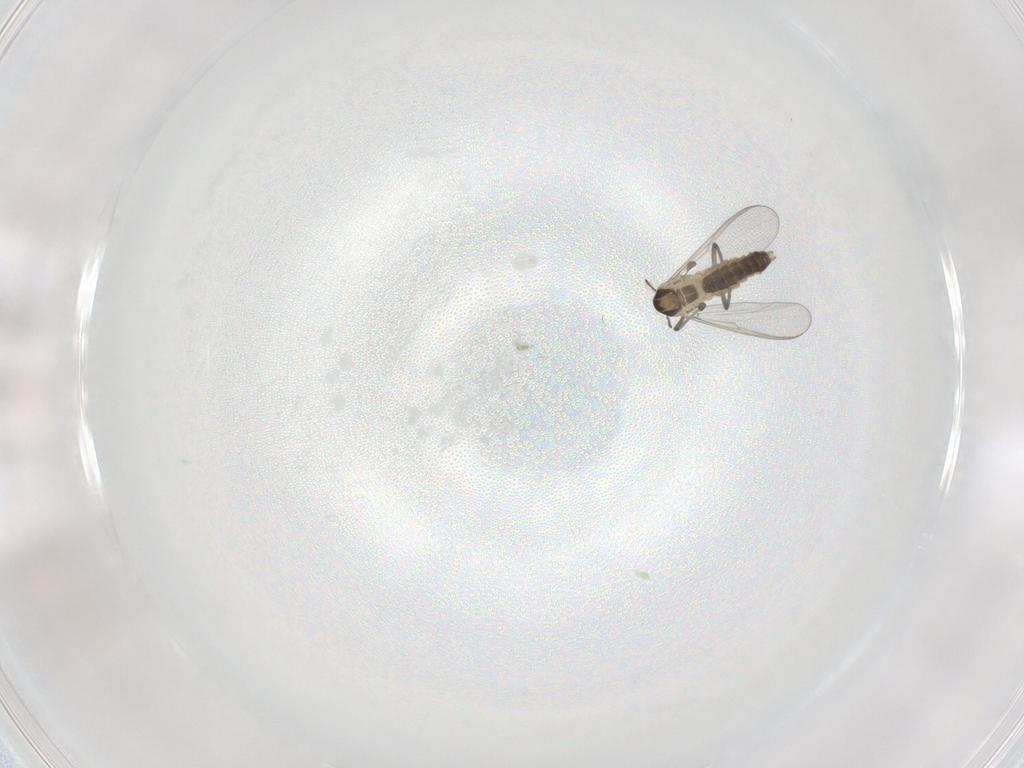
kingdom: Animalia
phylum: Arthropoda
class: Insecta
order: Diptera
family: Chironomidae
